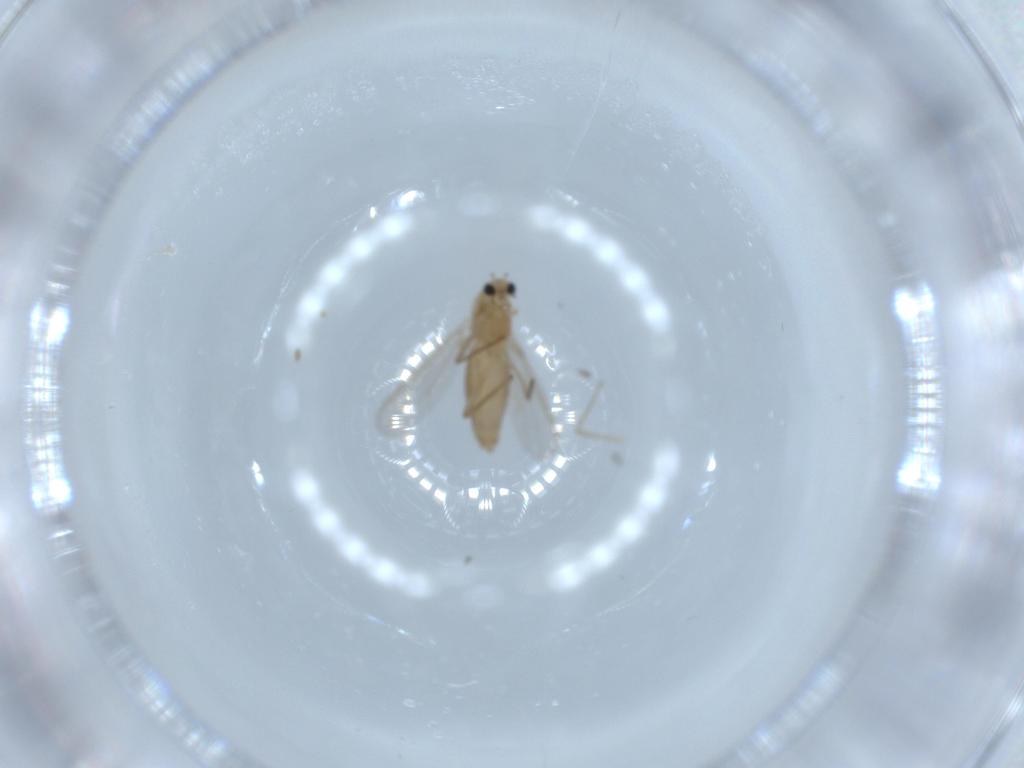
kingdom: Animalia
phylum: Arthropoda
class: Insecta
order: Diptera
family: Chironomidae
